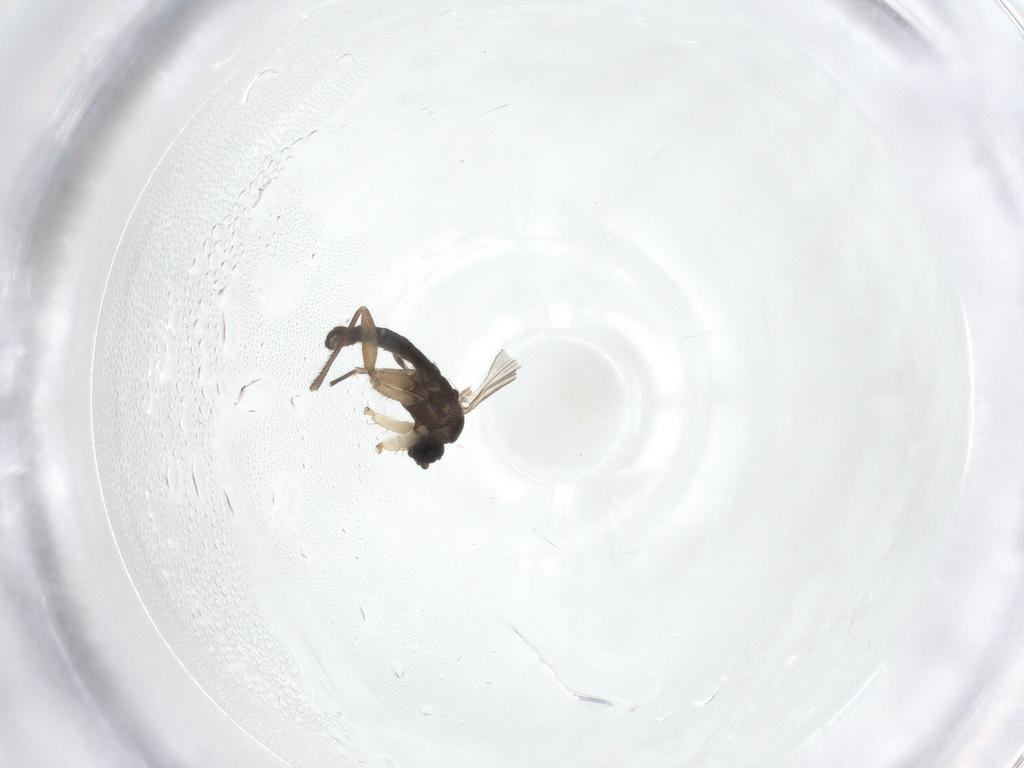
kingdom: Animalia
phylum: Arthropoda
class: Insecta
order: Diptera
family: Sciaridae
